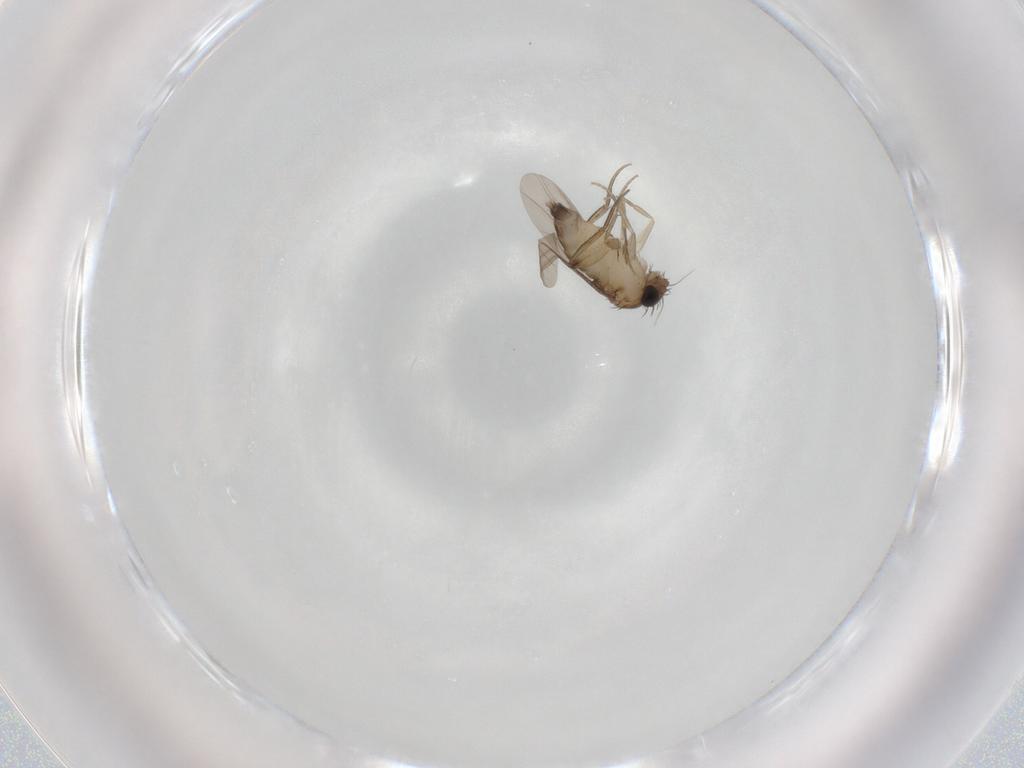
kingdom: Animalia
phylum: Arthropoda
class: Insecta
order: Diptera
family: Phoridae
